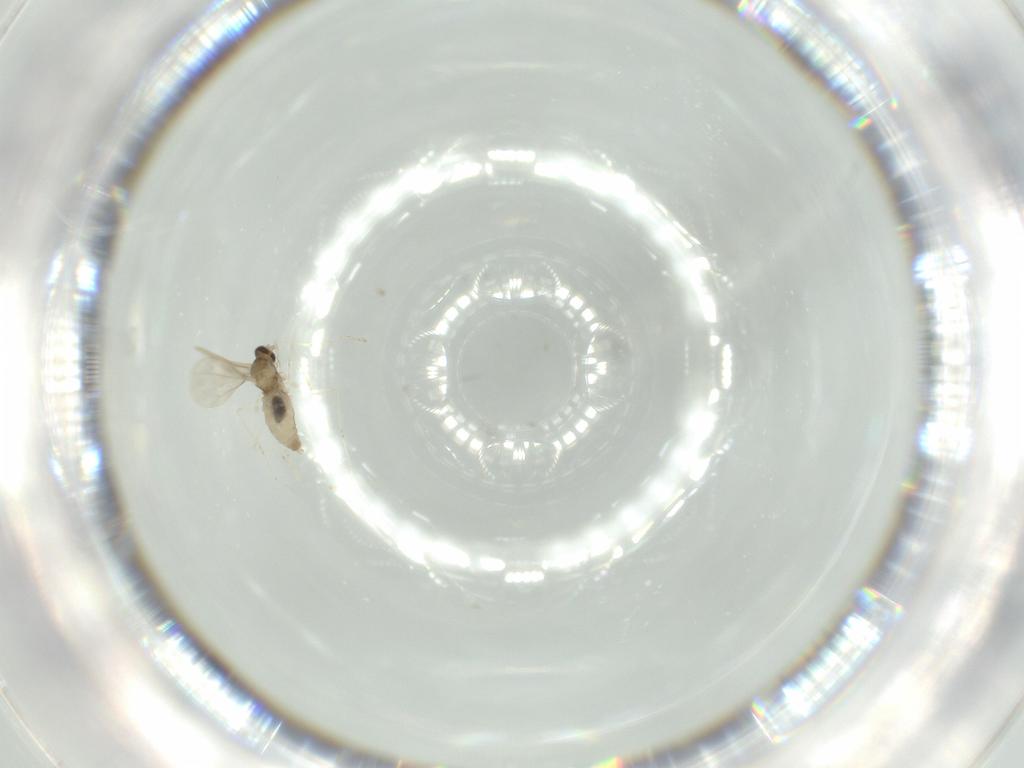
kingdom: Animalia
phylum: Arthropoda
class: Insecta
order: Diptera
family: Cecidomyiidae
